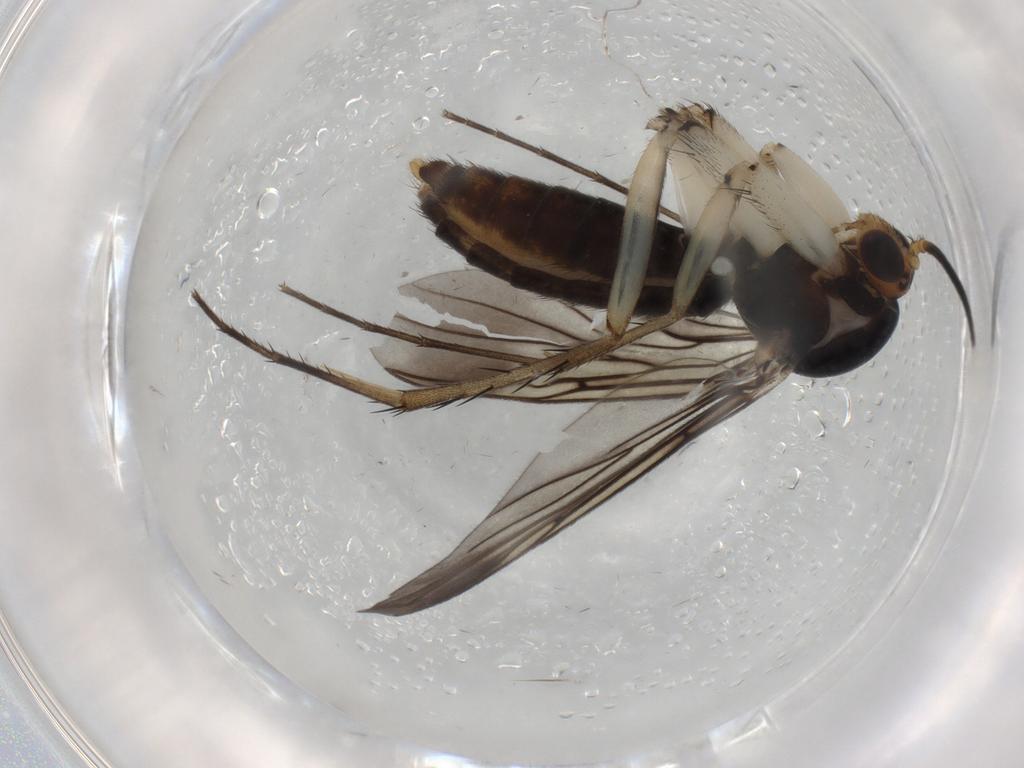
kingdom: Animalia
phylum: Arthropoda
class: Insecta
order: Diptera
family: Mycetophilidae
